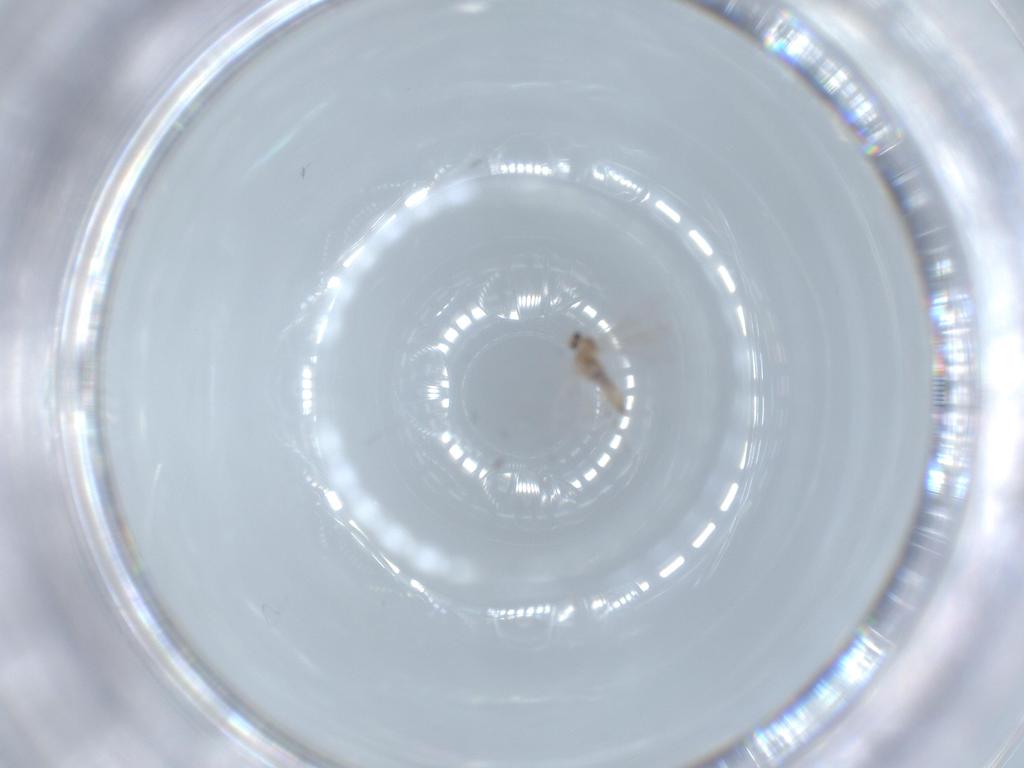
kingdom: Animalia
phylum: Arthropoda
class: Insecta
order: Diptera
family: Cecidomyiidae
